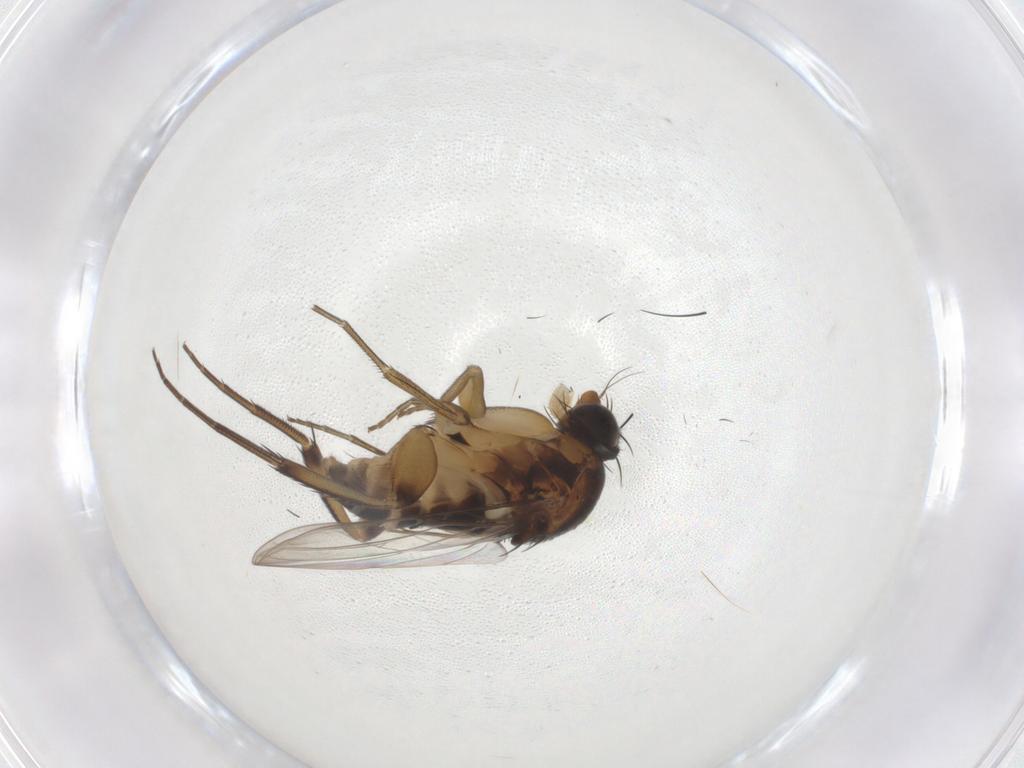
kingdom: Animalia
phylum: Arthropoda
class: Insecta
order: Diptera
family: Phoridae
